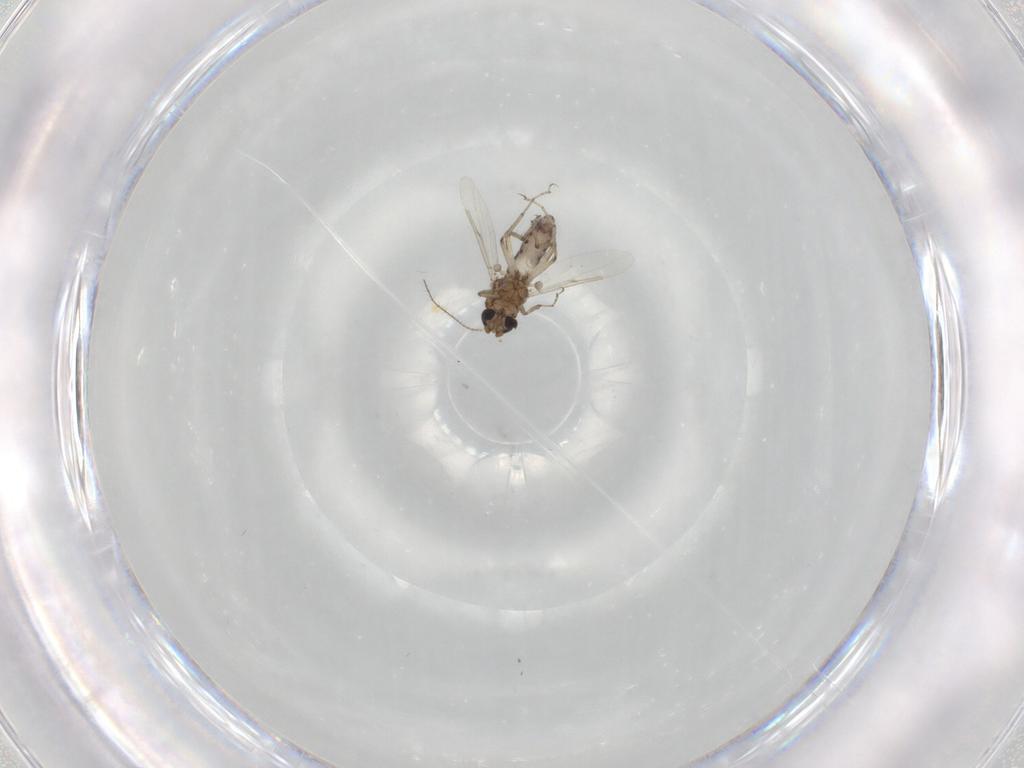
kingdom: Animalia
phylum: Arthropoda
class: Insecta
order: Diptera
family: Ceratopogonidae
